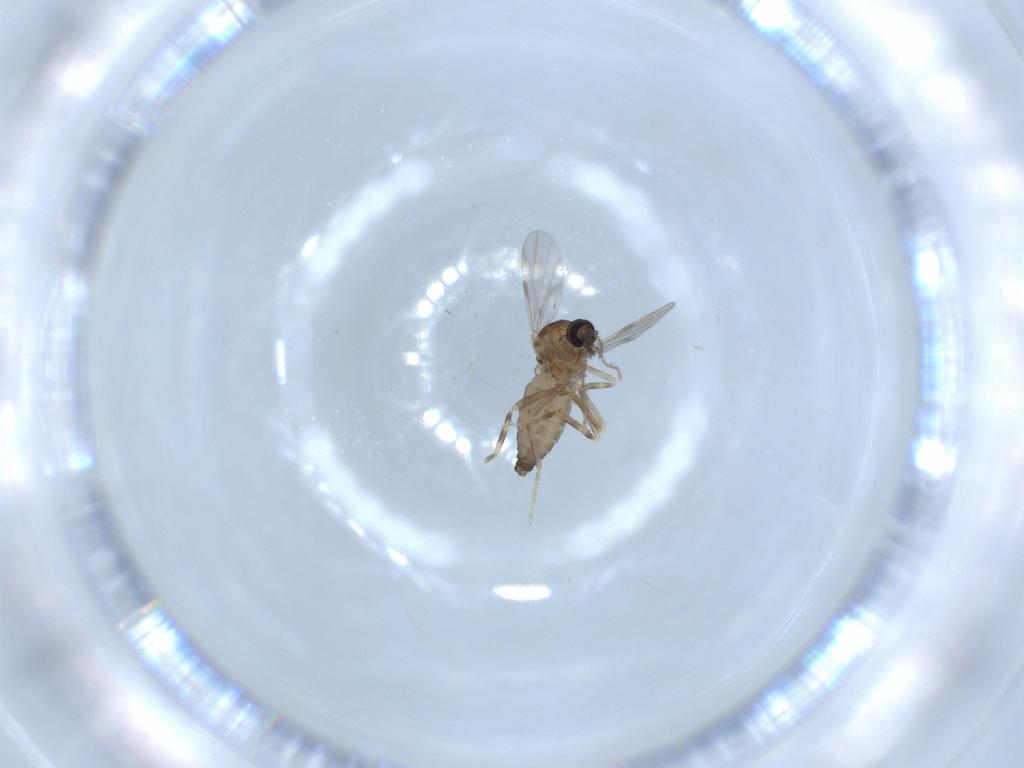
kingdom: Animalia
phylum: Arthropoda
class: Insecta
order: Diptera
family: Ceratopogonidae
